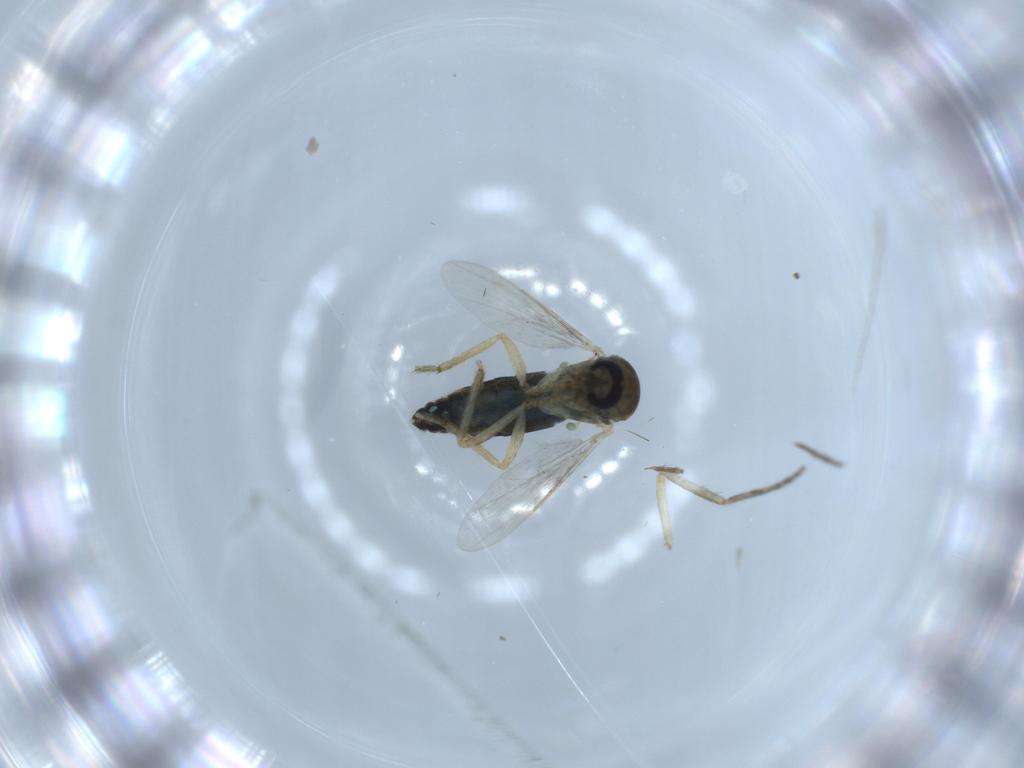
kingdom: Animalia
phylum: Arthropoda
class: Insecta
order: Diptera
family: Ceratopogonidae
